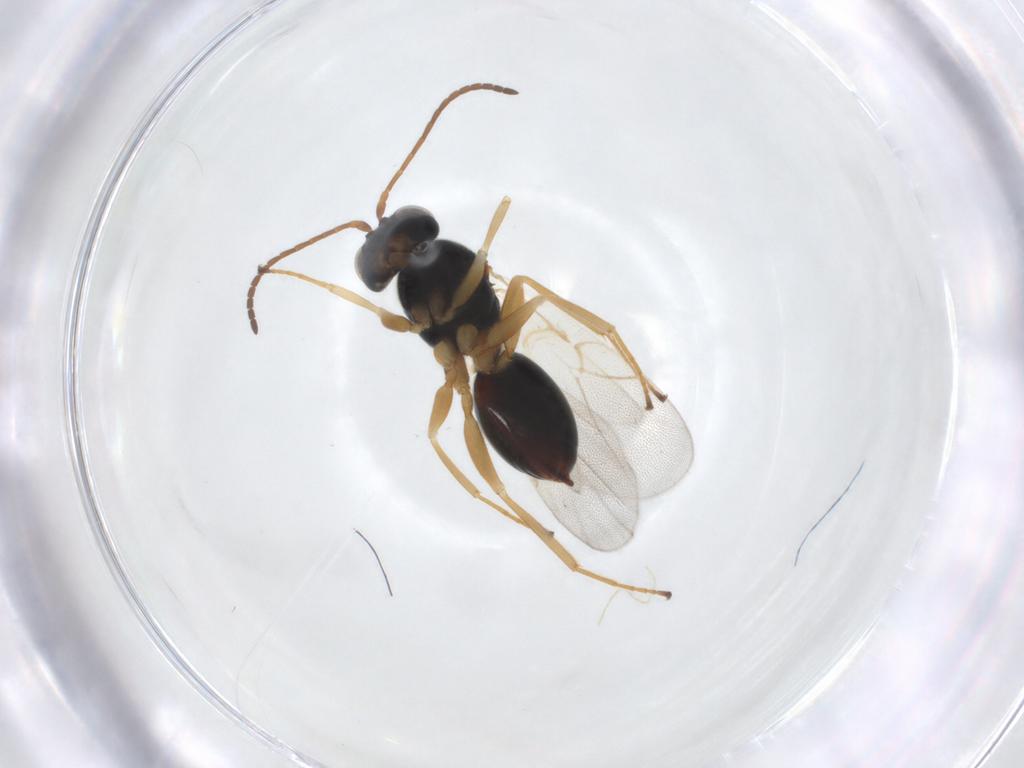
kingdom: Animalia
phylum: Arthropoda
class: Insecta
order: Hymenoptera
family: Cynipidae
